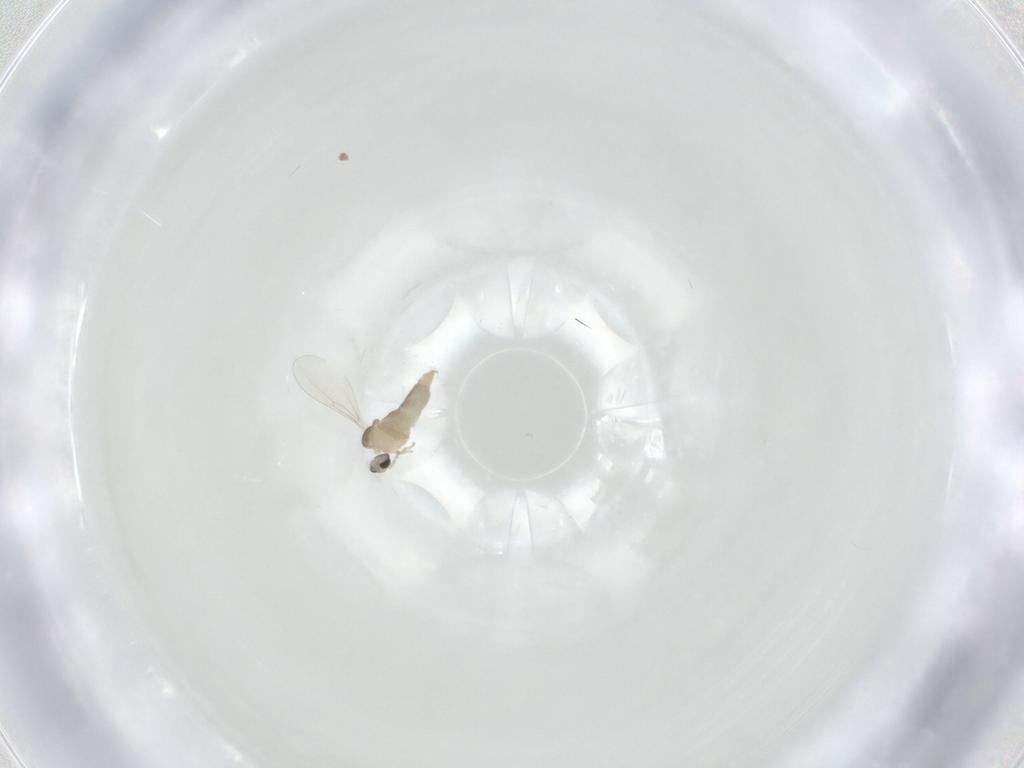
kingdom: Animalia
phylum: Arthropoda
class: Insecta
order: Diptera
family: Cecidomyiidae
